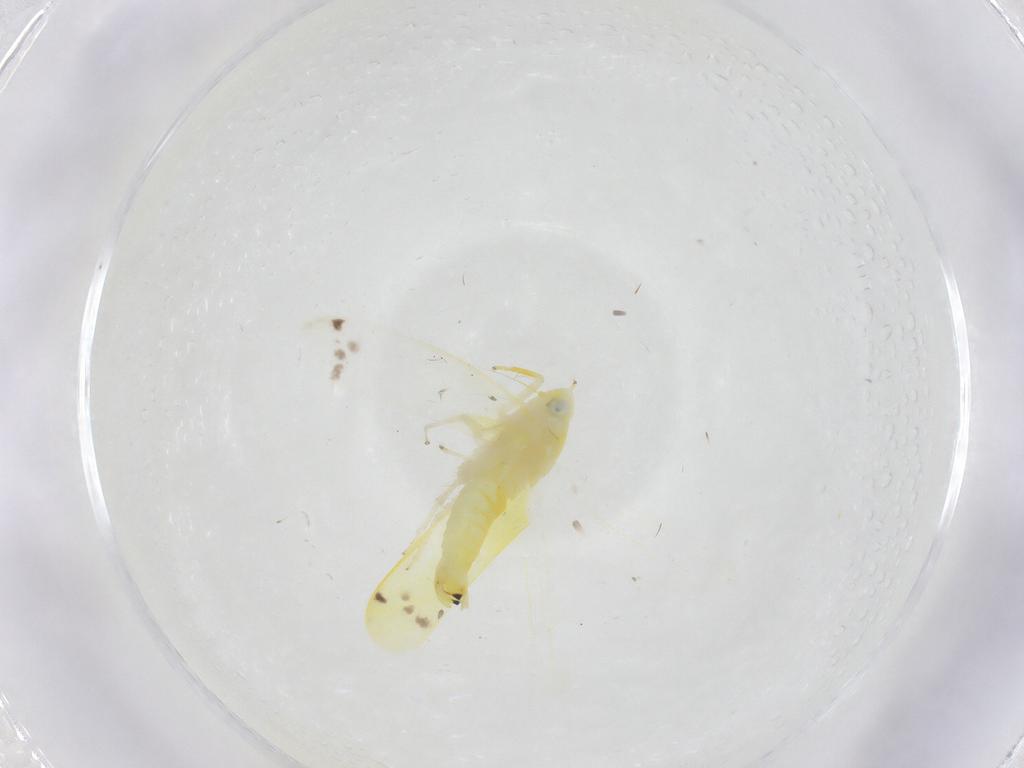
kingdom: Animalia
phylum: Arthropoda
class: Insecta
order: Hemiptera
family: Cicadellidae
